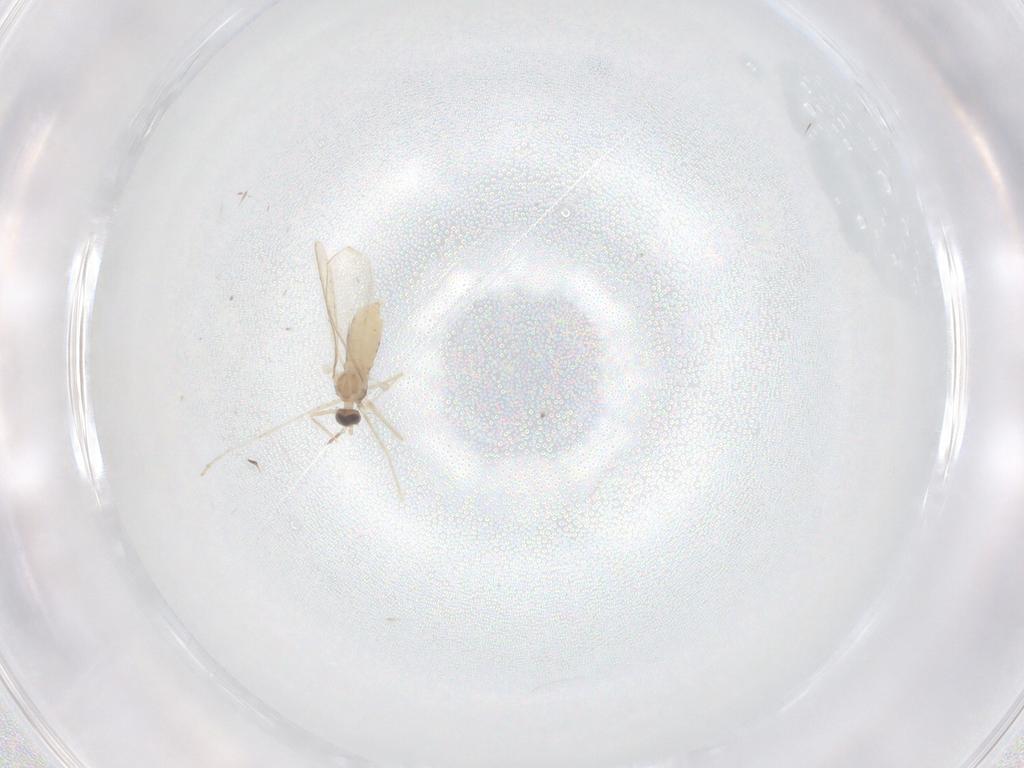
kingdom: Animalia
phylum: Arthropoda
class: Insecta
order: Diptera
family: Cecidomyiidae
